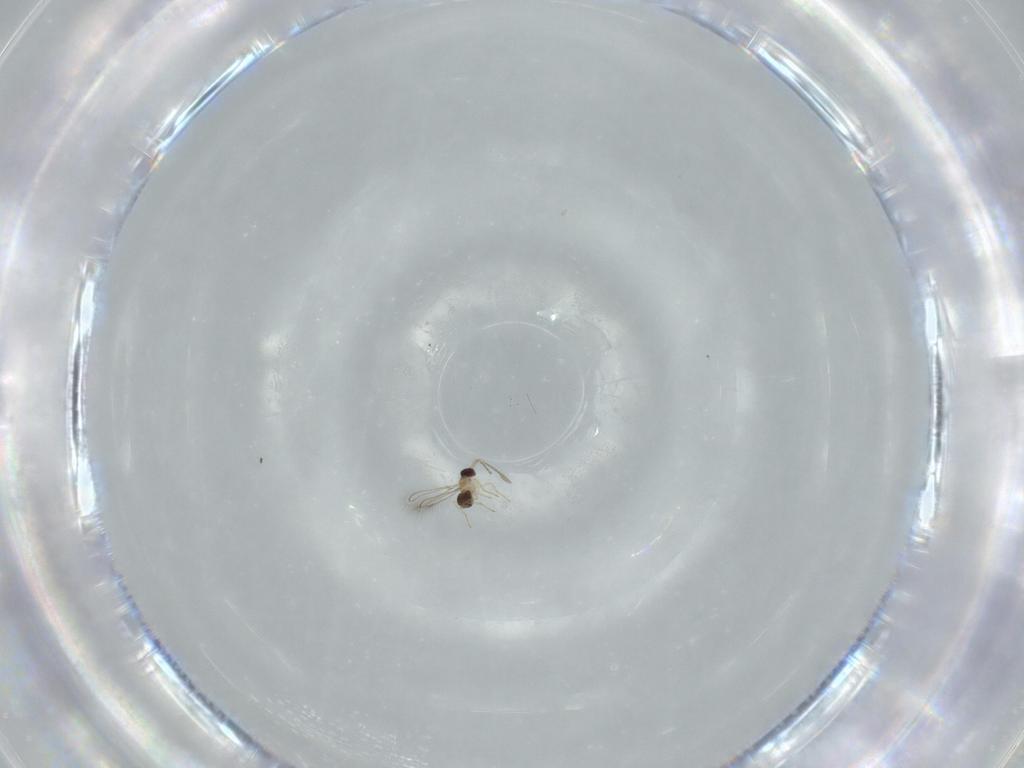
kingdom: Animalia
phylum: Arthropoda
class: Insecta
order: Hymenoptera
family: Mymaridae
